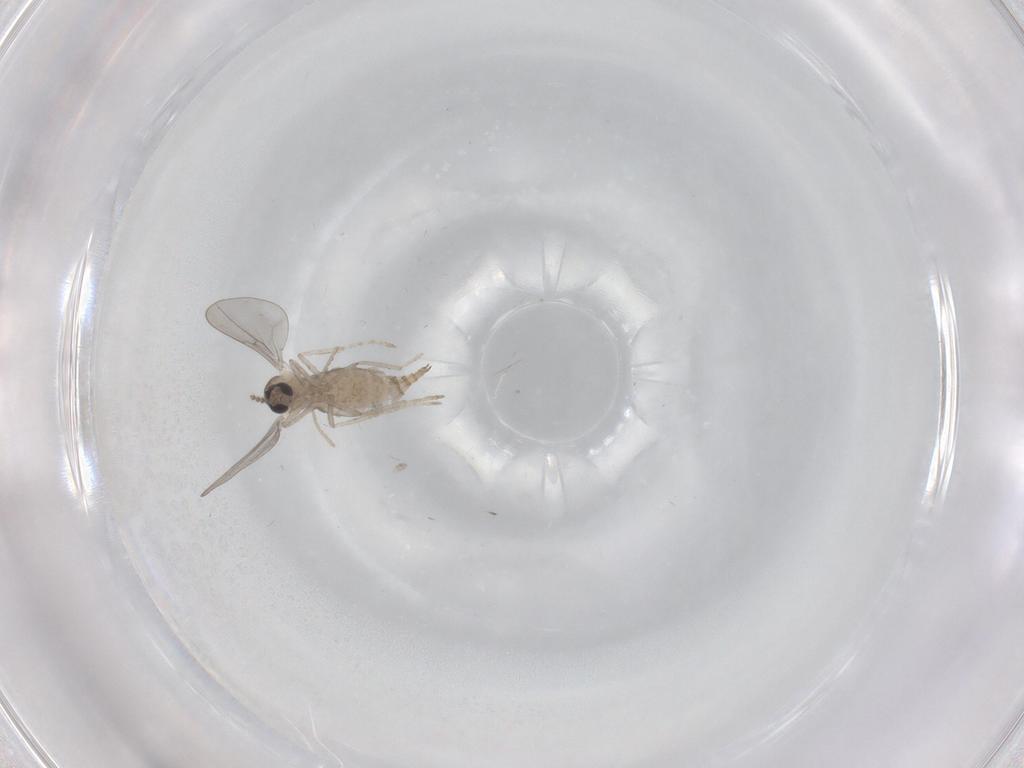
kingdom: Animalia
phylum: Arthropoda
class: Insecta
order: Diptera
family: Cecidomyiidae
